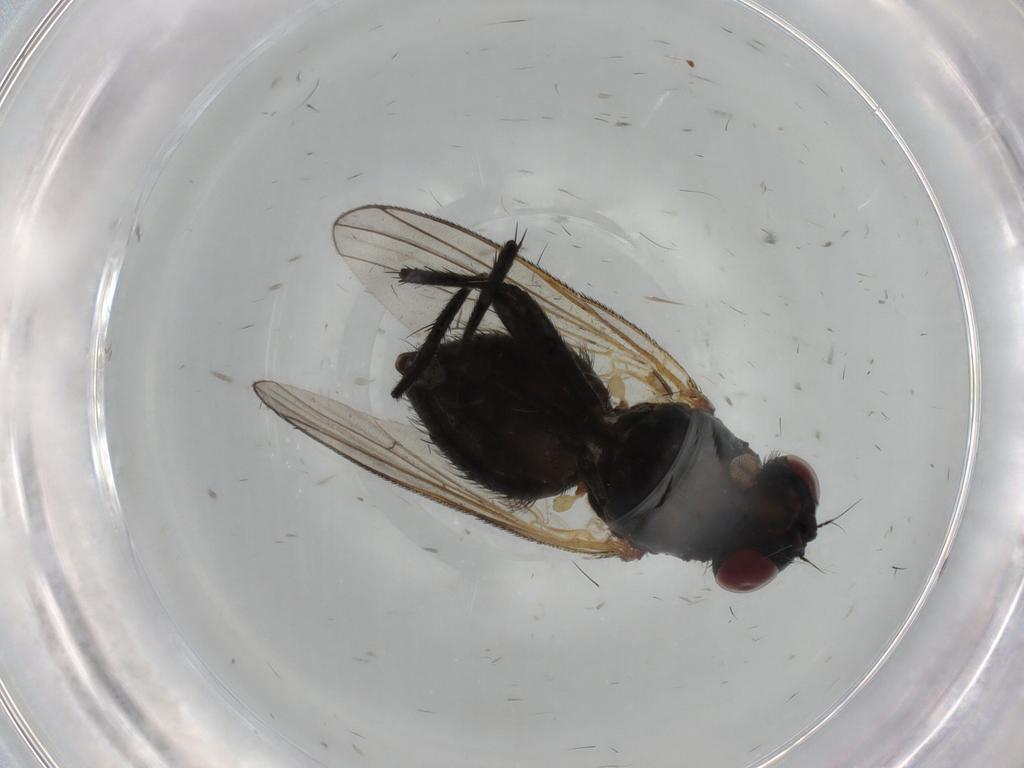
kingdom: Animalia
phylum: Arthropoda
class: Insecta
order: Diptera
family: Fannia
